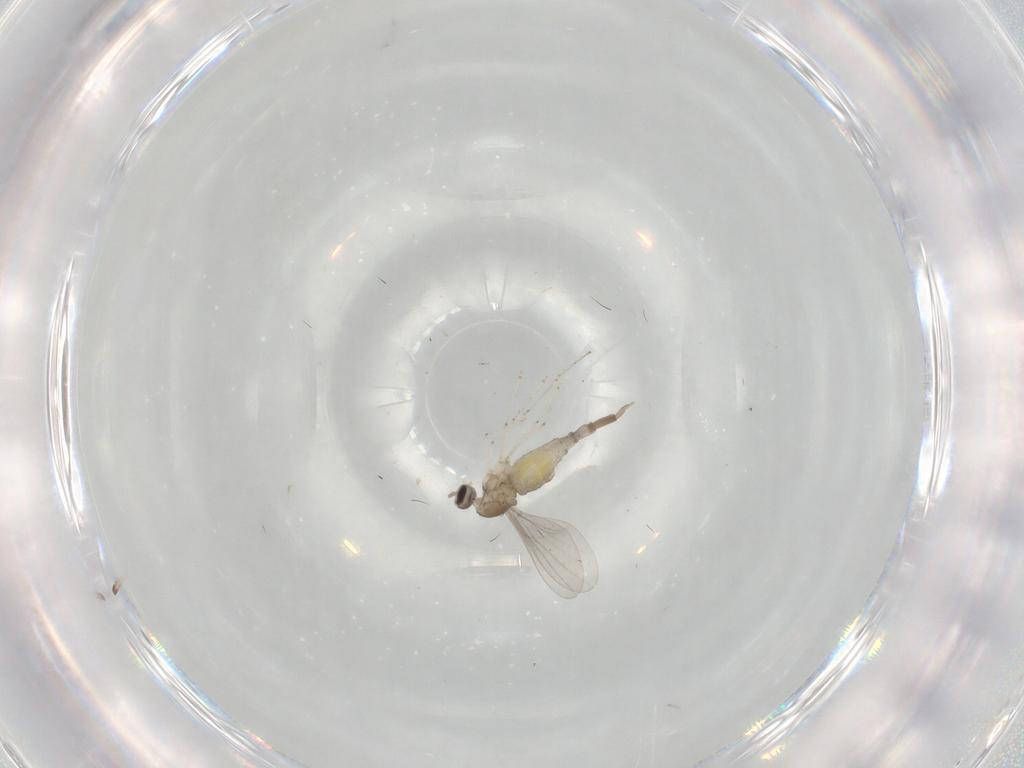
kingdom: Animalia
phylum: Arthropoda
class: Insecta
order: Diptera
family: Cecidomyiidae
